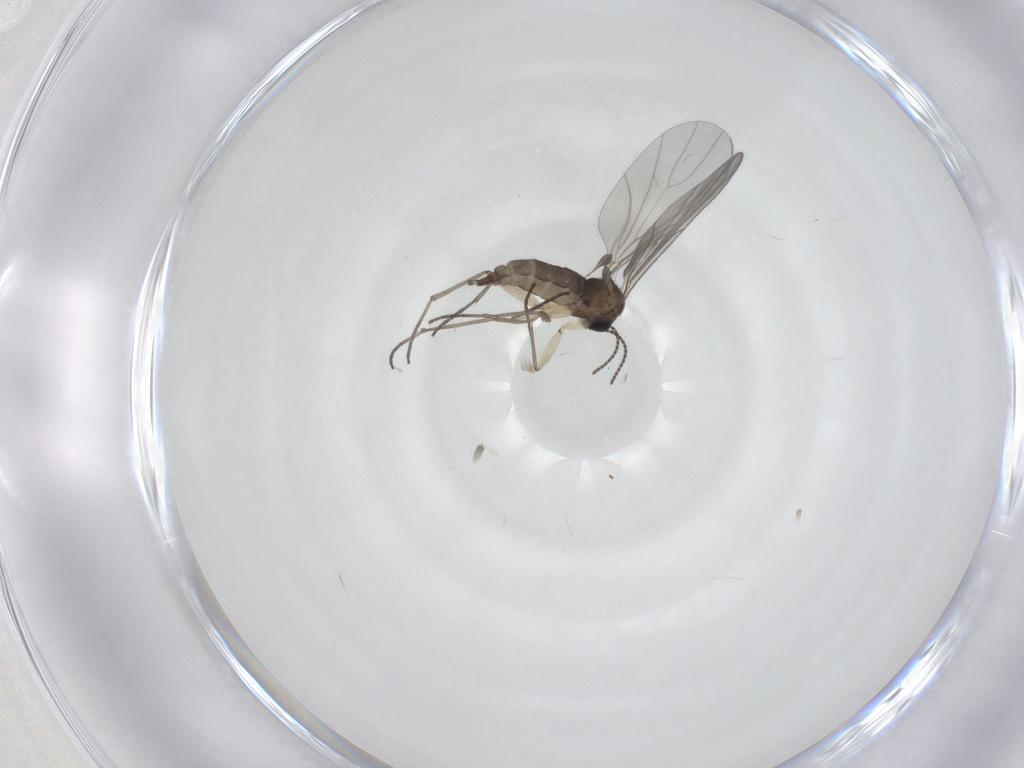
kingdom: Animalia
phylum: Arthropoda
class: Insecta
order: Diptera
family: Sciaridae
